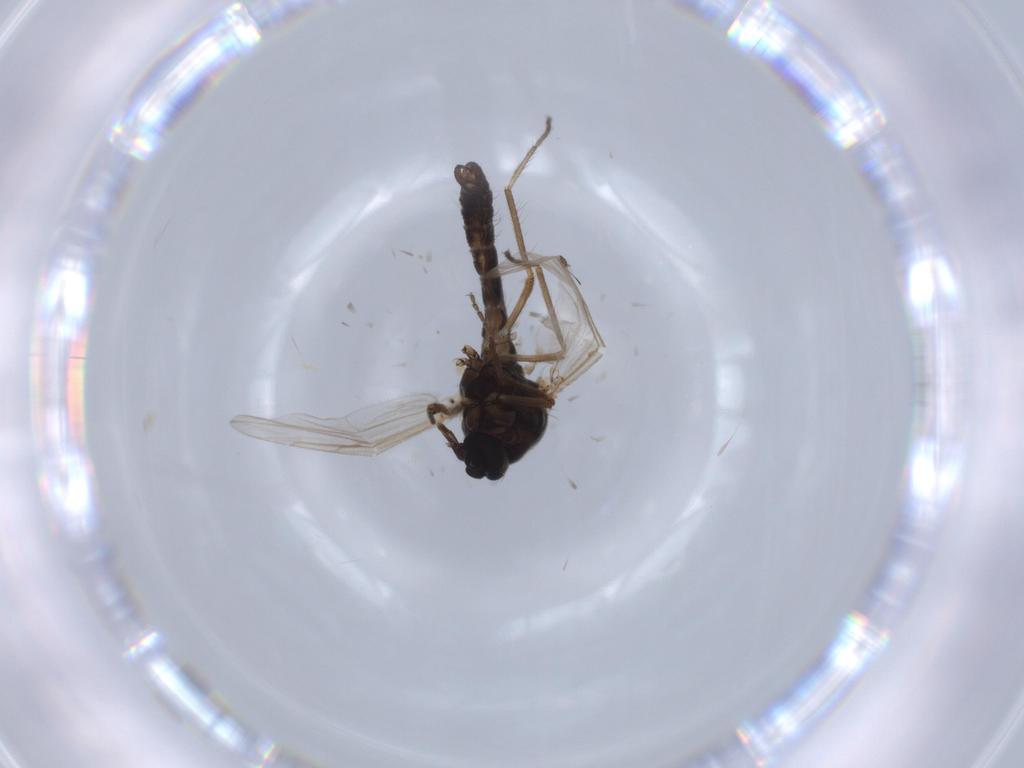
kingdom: Animalia
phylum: Arthropoda
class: Insecta
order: Diptera
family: Ceratopogonidae
